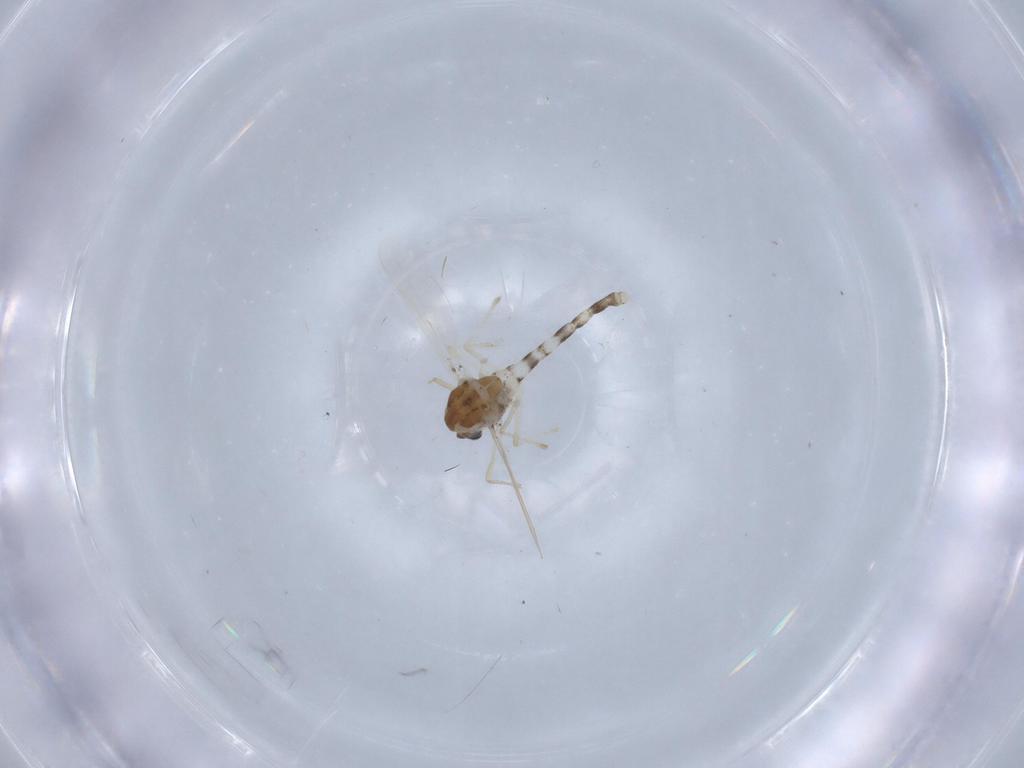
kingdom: Animalia
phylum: Arthropoda
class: Insecta
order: Diptera
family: Chironomidae
